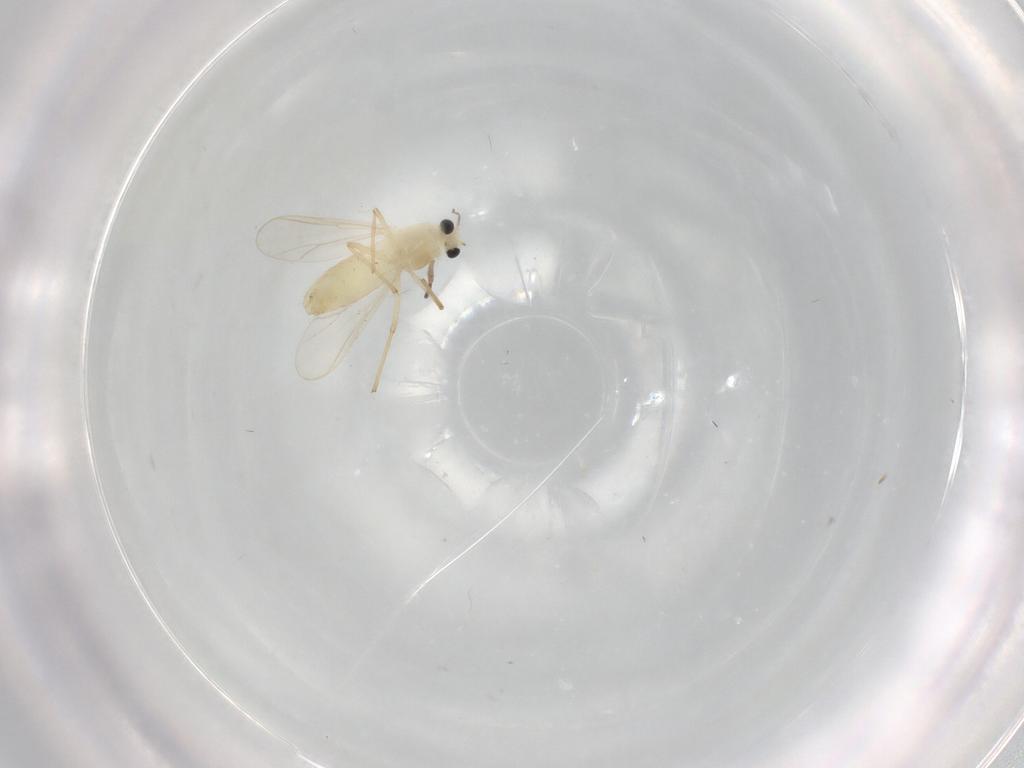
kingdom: Animalia
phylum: Arthropoda
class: Insecta
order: Diptera
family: Chironomidae
